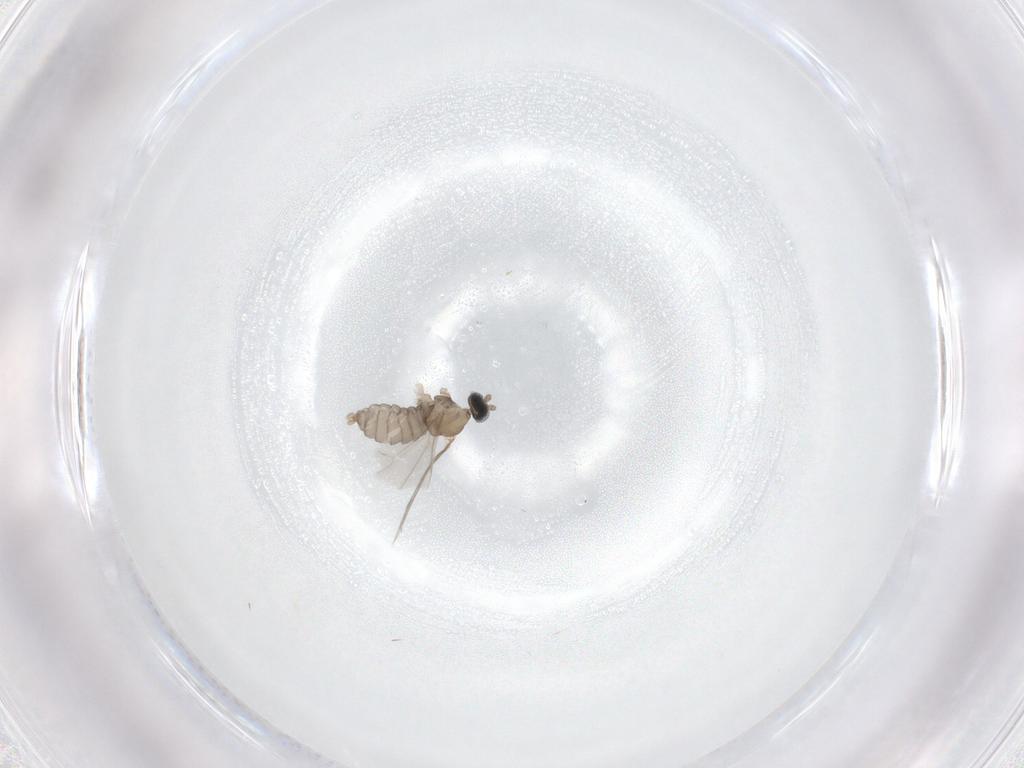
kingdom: Animalia
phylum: Arthropoda
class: Insecta
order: Diptera
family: Cecidomyiidae
